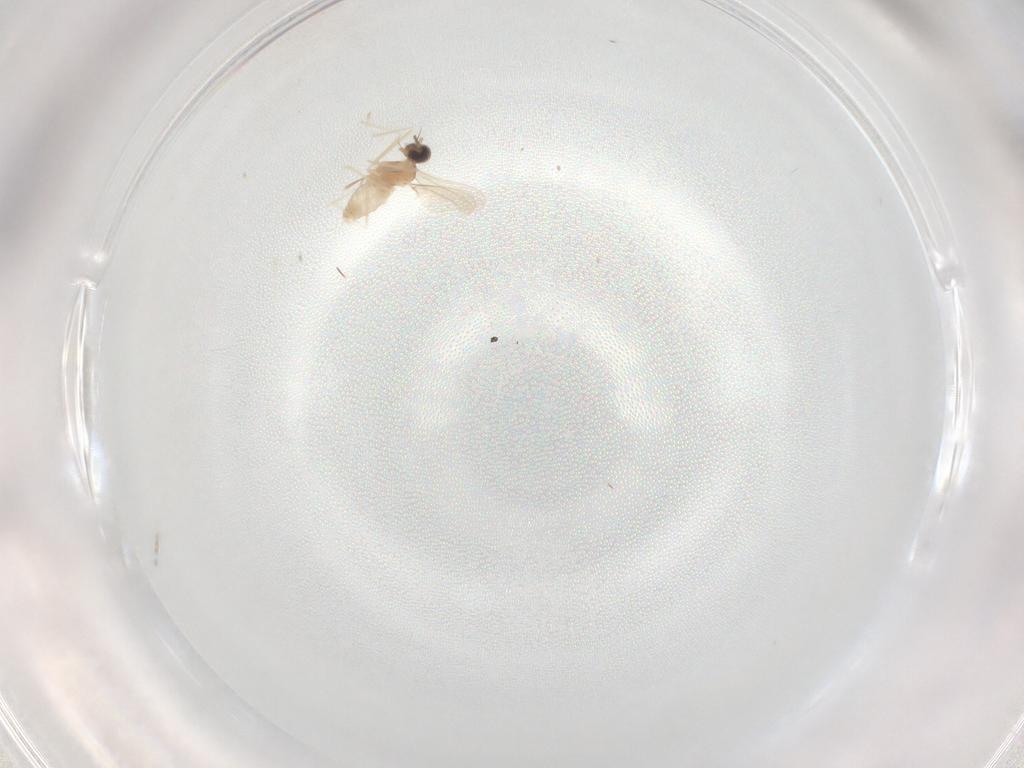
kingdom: Animalia
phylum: Arthropoda
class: Insecta
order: Diptera
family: Cecidomyiidae
